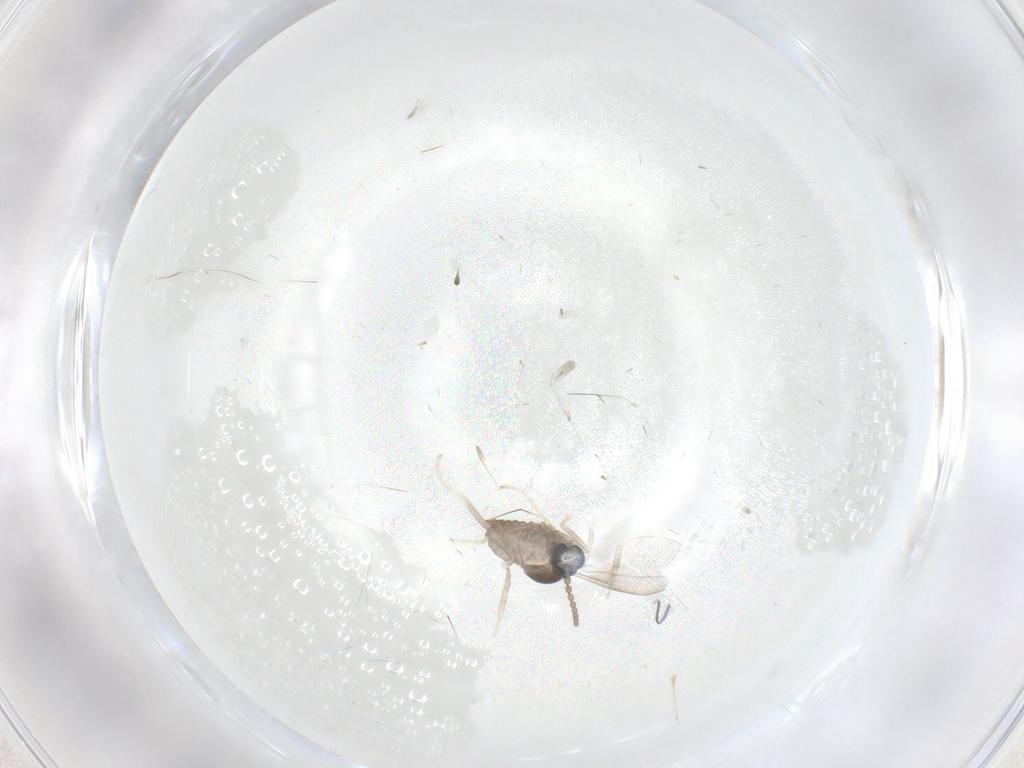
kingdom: Animalia
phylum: Arthropoda
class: Insecta
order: Diptera
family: Cecidomyiidae
